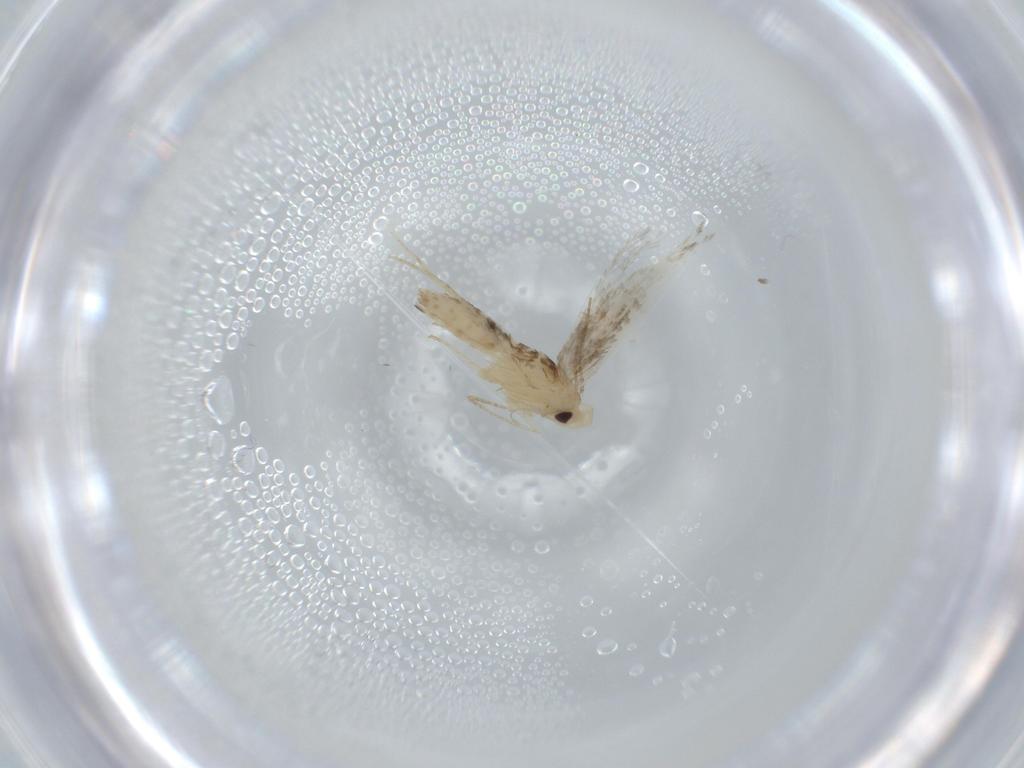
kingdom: Animalia
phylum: Arthropoda
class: Insecta
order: Lepidoptera
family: Gracillariidae
